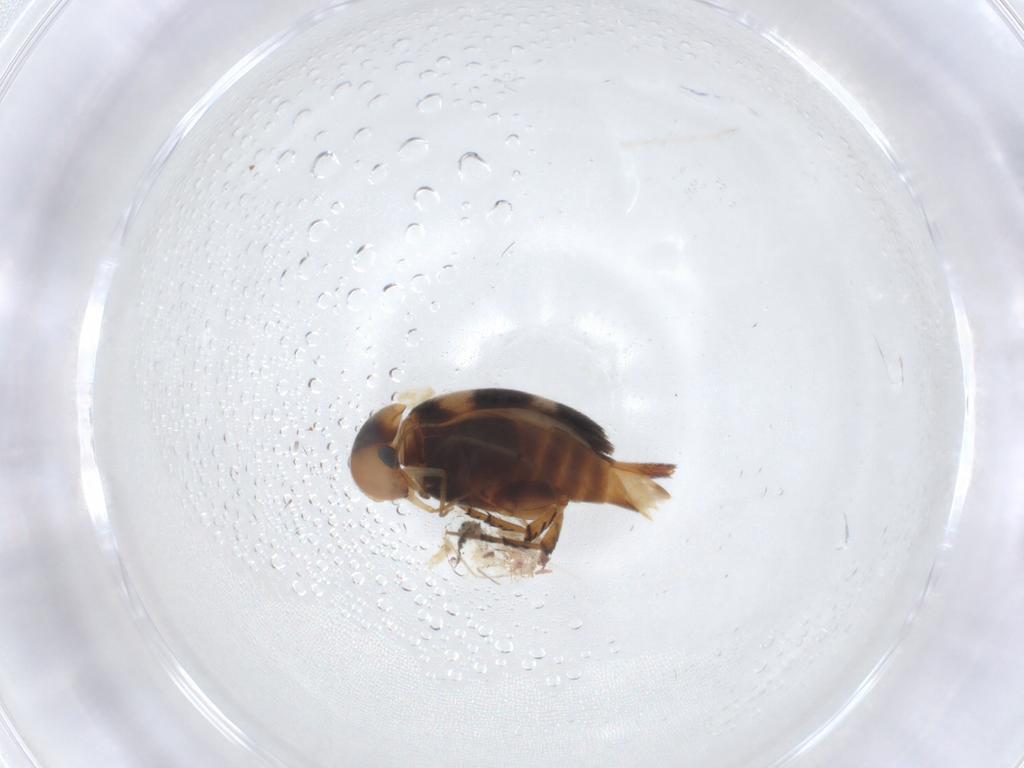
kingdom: Animalia
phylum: Arthropoda
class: Insecta
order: Coleoptera
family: Mordellidae
